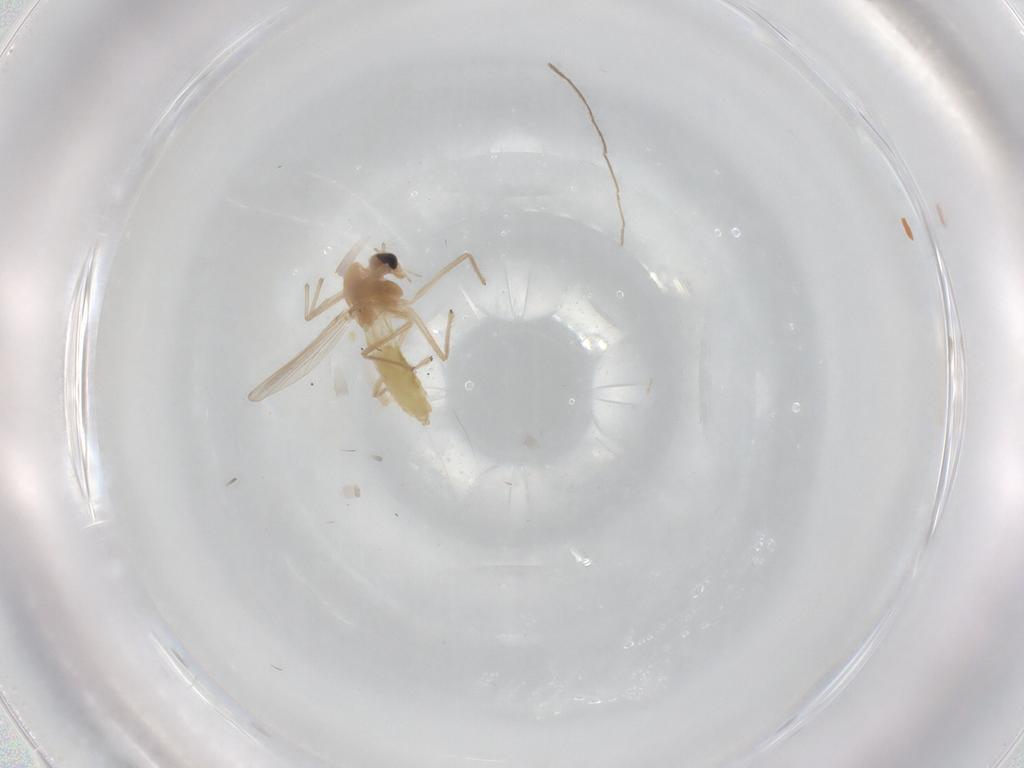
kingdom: Animalia
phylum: Arthropoda
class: Insecta
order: Diptera
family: Chironomidae
